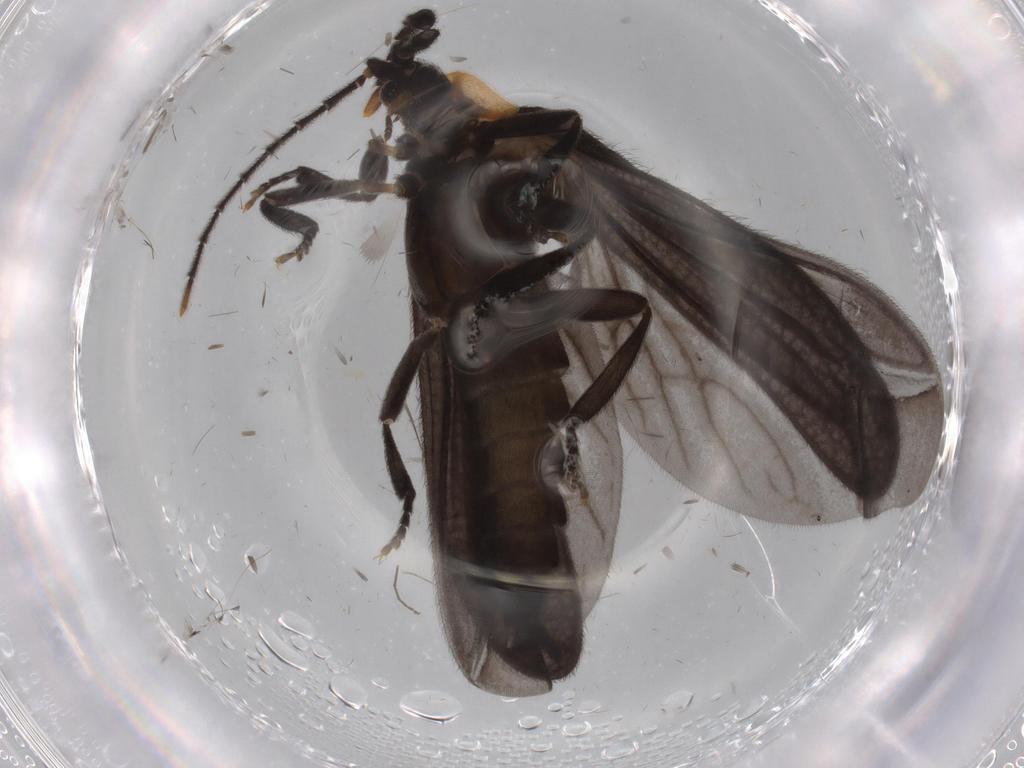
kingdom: Animalia
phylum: Arthropoda
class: Insecta
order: Coleoptera
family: Lycidae
